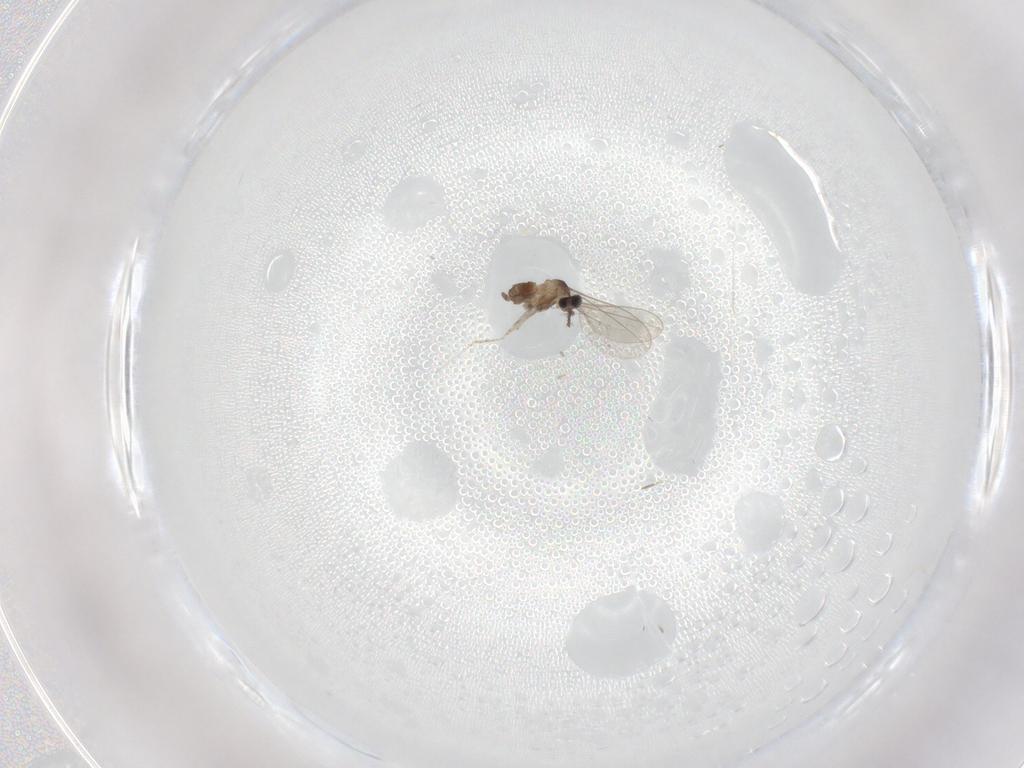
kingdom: Animalia
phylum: Arthropoda
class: Insecta
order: Diptera
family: Cecidomyiidae
